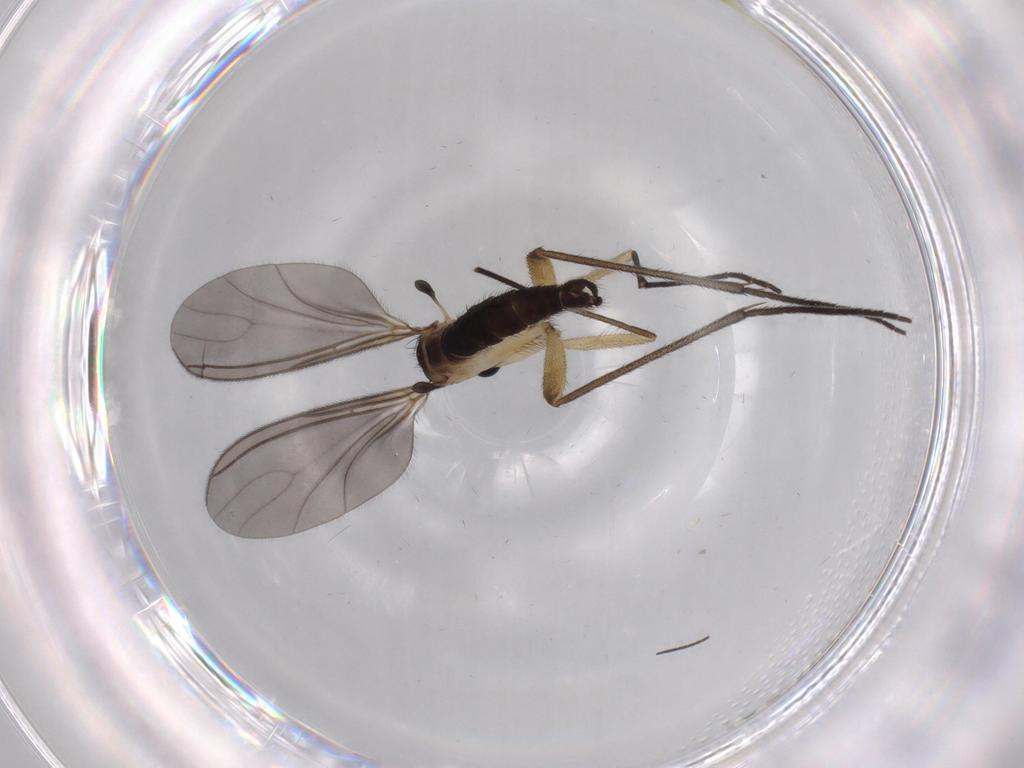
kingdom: Animalia
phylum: Arthropoda
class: Insecta
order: Diptera
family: Sciaridae
